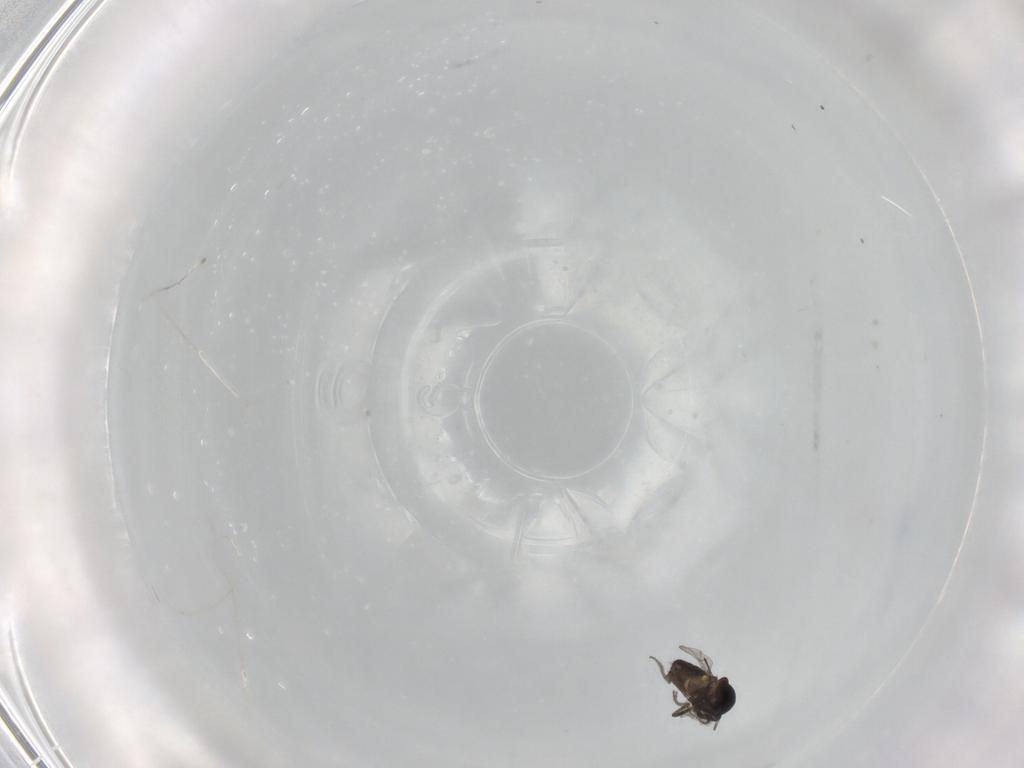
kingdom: Animalia
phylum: Arthropoda
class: Insecta
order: Diptera
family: Ceratopogonidae
